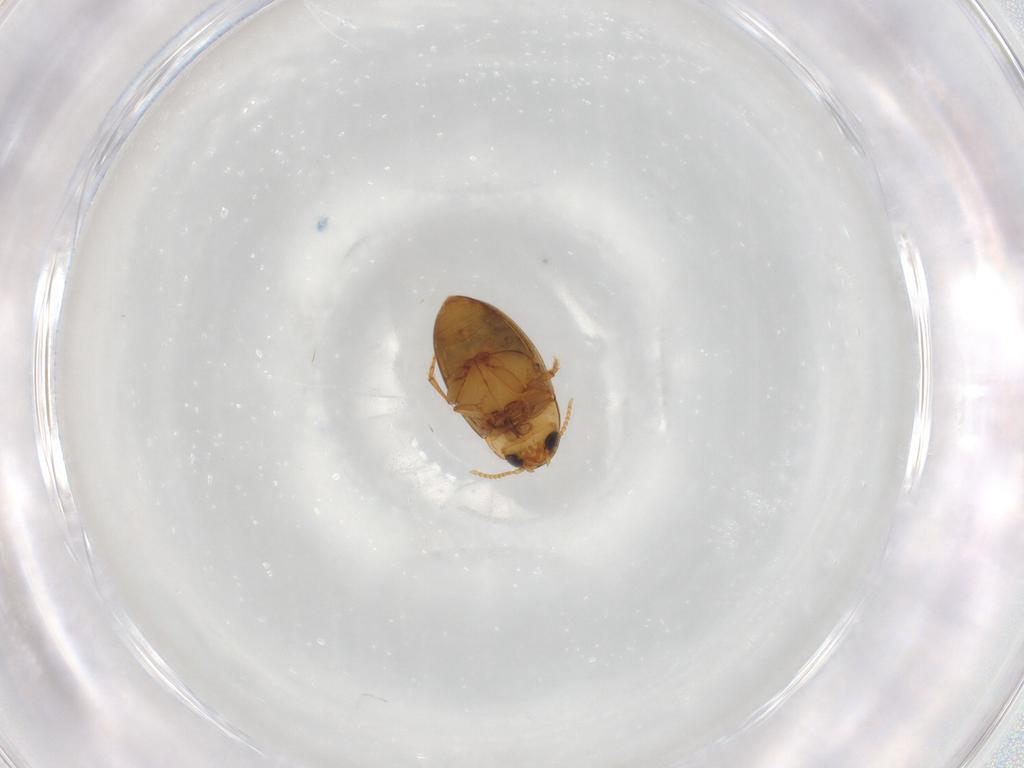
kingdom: Animalia
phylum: Arthropoda
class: Insecta
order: Coleoptera
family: Dytiscidae
